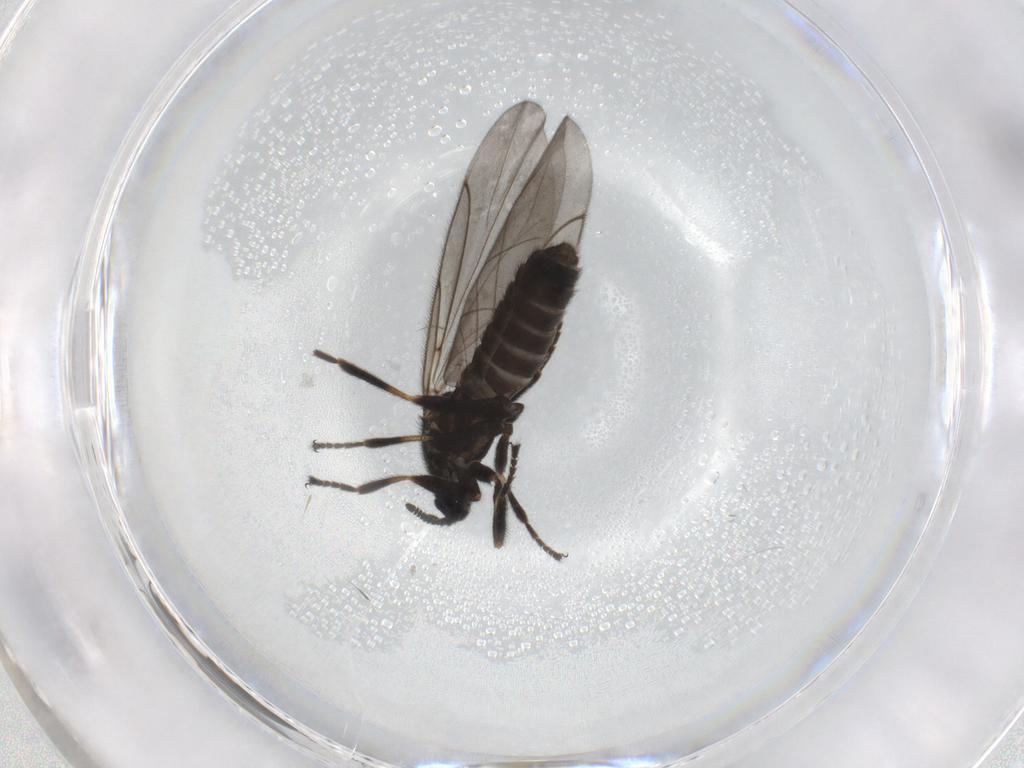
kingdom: Animalia
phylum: Arthropoda
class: Insecta
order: Diptera
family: Scatopsidae
